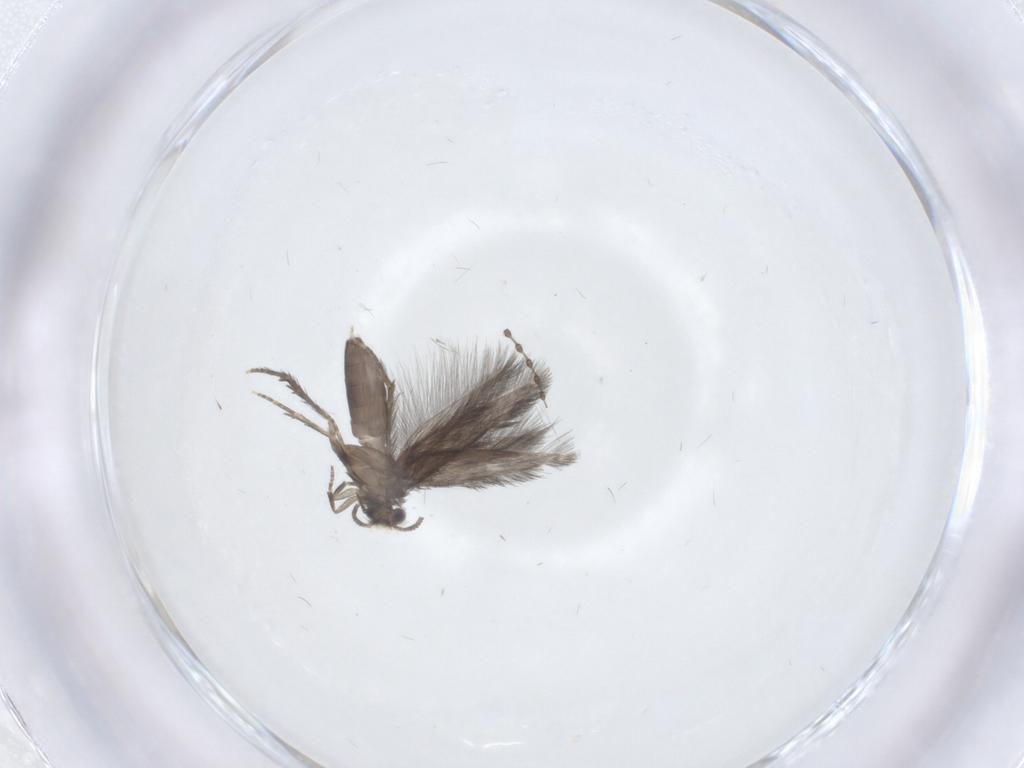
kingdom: Animalia
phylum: Arthropoda
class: Insecta
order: Trichoptera
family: Hydroptilidae
